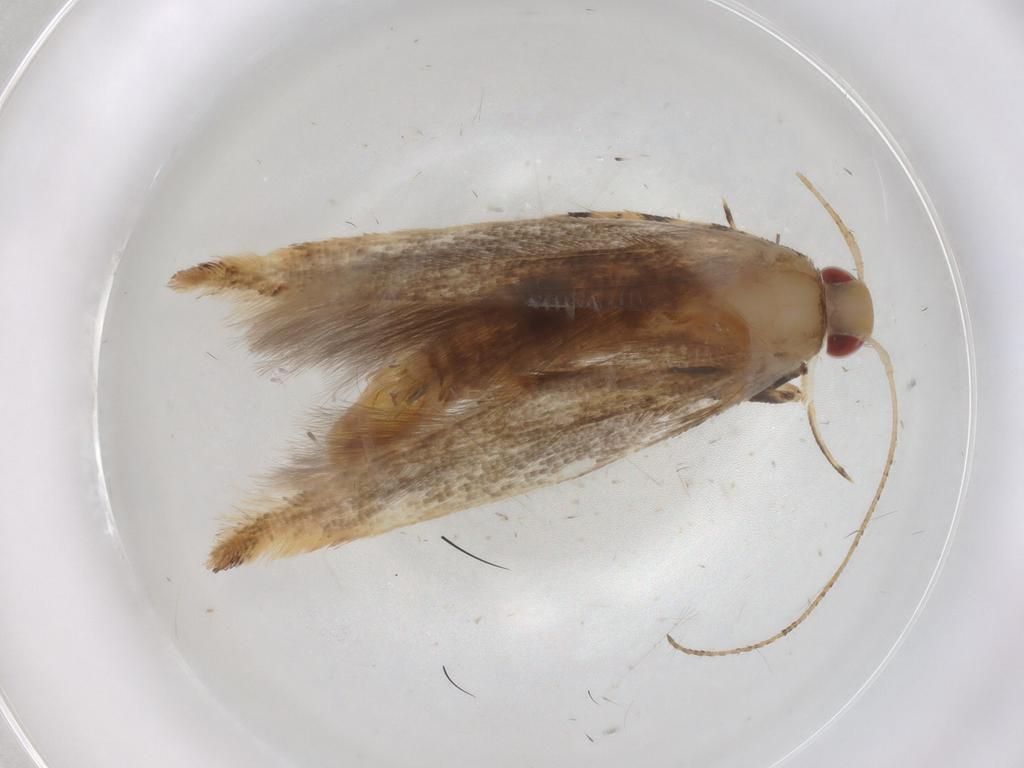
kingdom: Animalia
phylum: Arthropoda
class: Insecta
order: Lepidoptera
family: Cosmopterigidae
